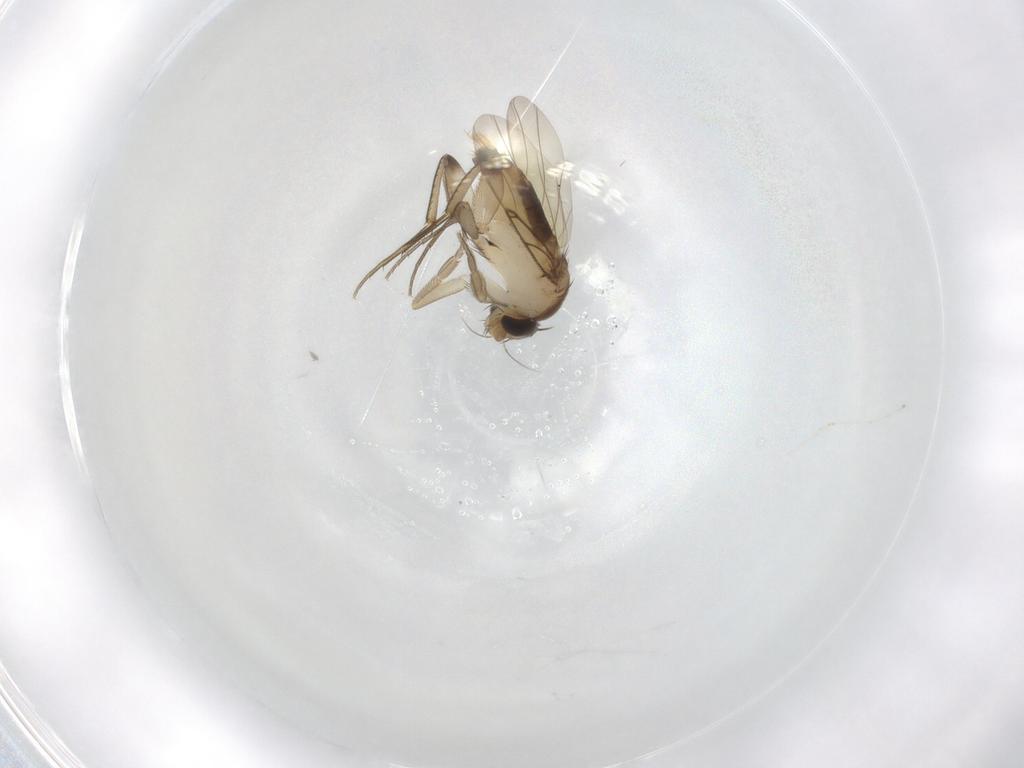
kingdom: Animalia
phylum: Arthropoda
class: Insecta
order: Diptera
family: Phoridae
